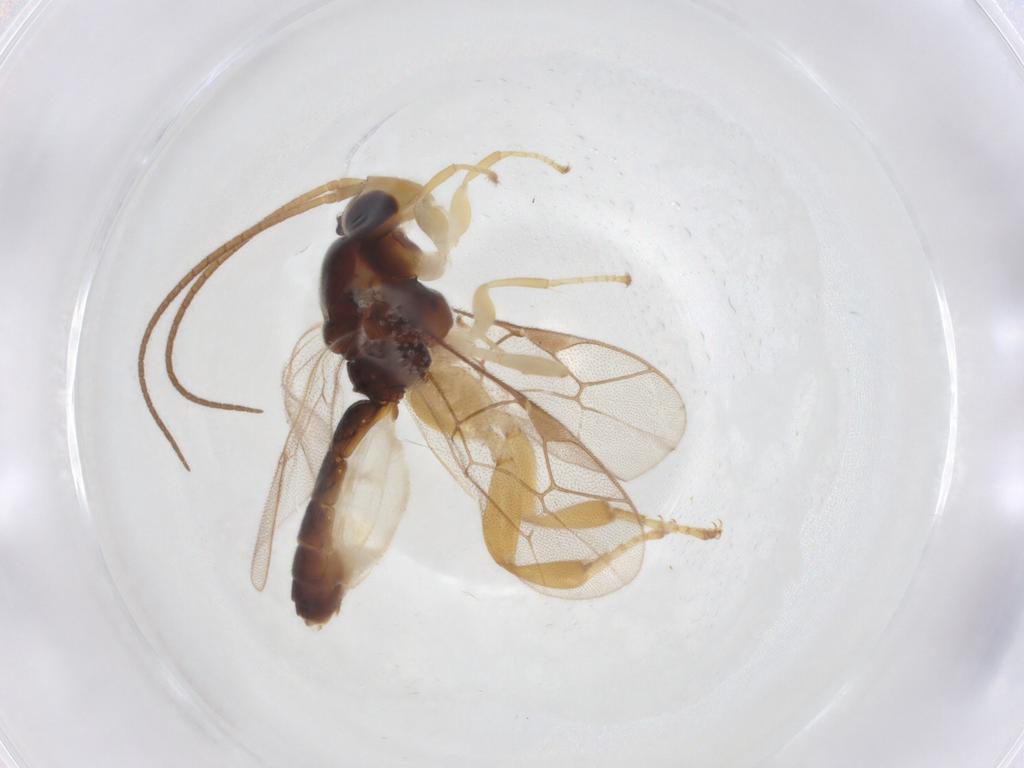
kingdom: Animalia
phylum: Arthropoda
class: Insecta
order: Hymenoptera
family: Ichneumonidae
